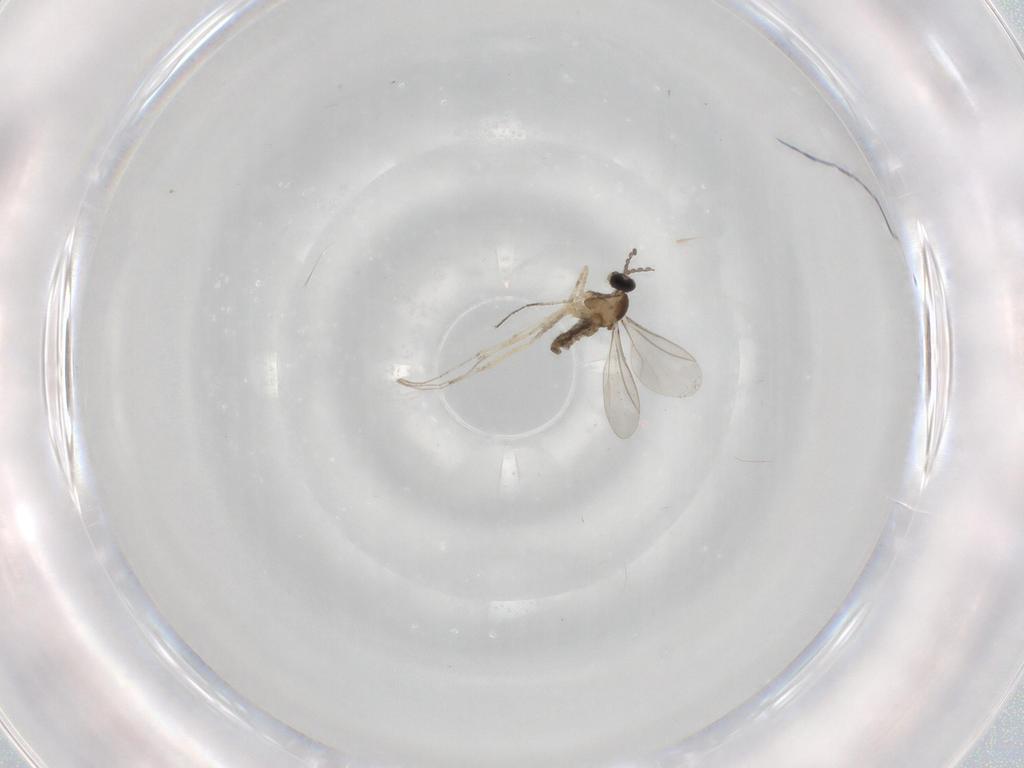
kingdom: Animalia
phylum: Arthropoda
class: Insecta
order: Diptera
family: Cecidomyiidae
